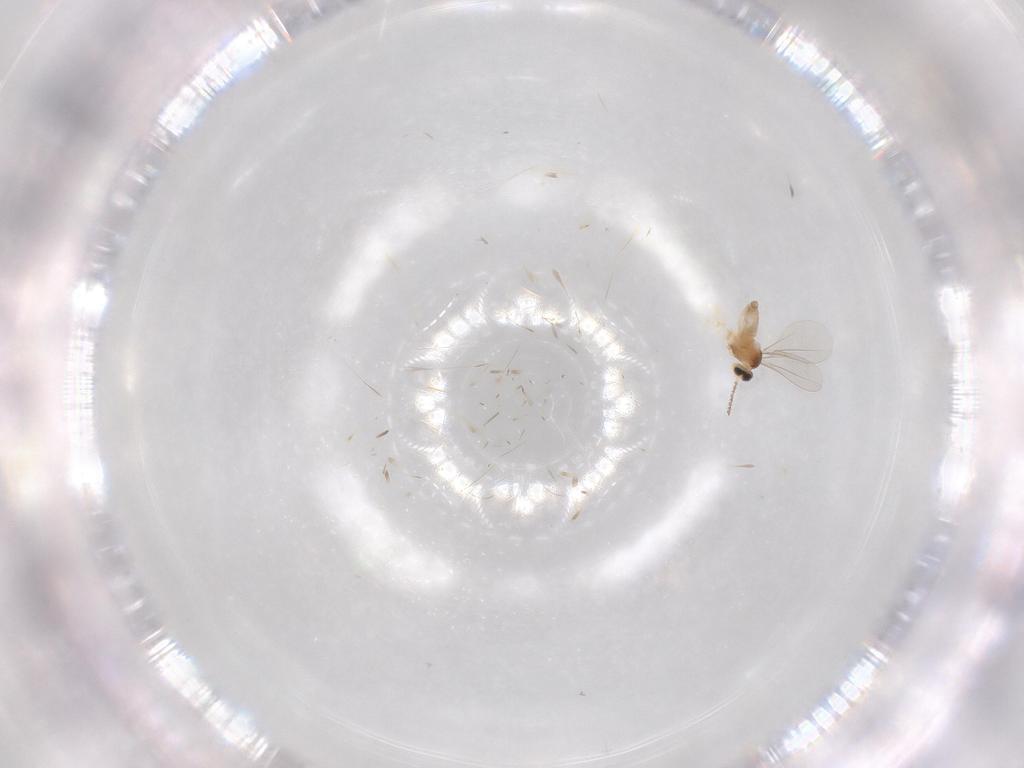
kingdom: Animalia
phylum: Arthropoda
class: Insecta
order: Diptera
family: Cecidomyiidae
